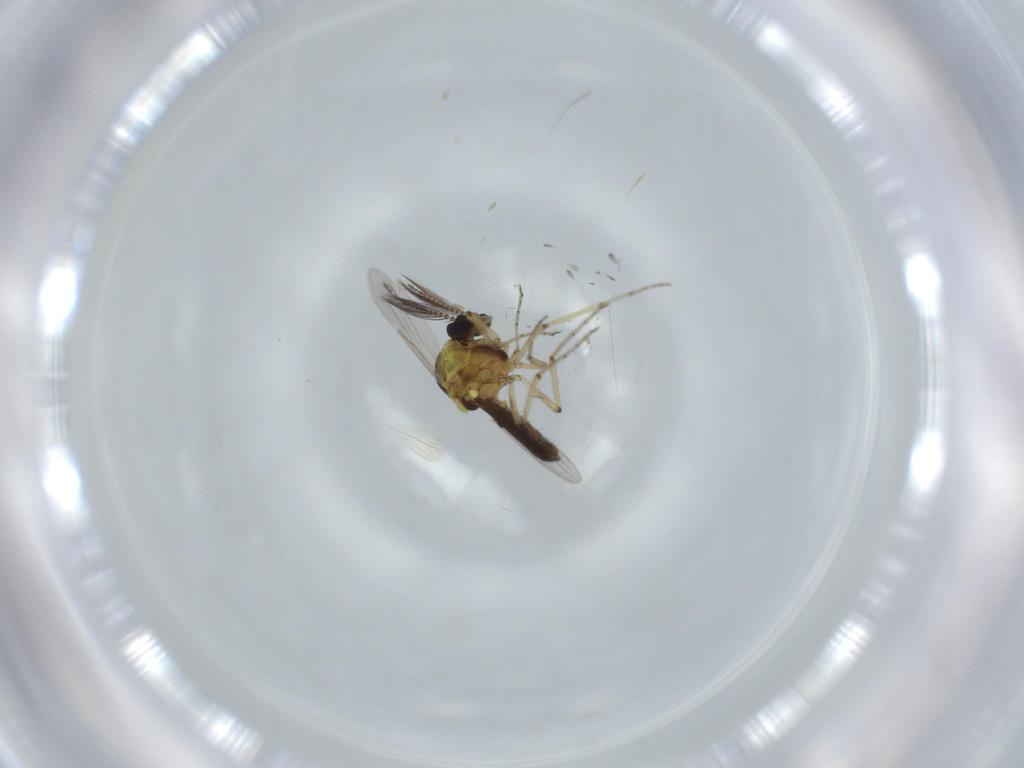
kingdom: Animalia
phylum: Arthropoda
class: Insecta
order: Diptera
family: Ceratopogonidae
